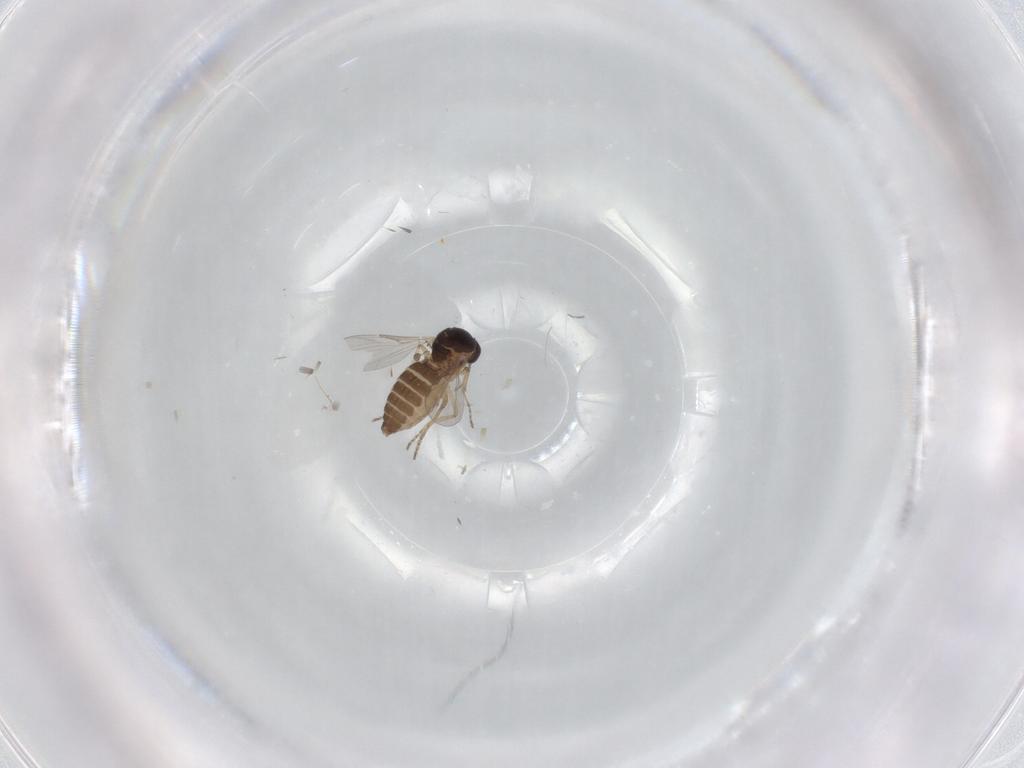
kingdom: Animalia
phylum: Arthropoda
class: Insecta
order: Diptera
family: Ceratopogonidae
